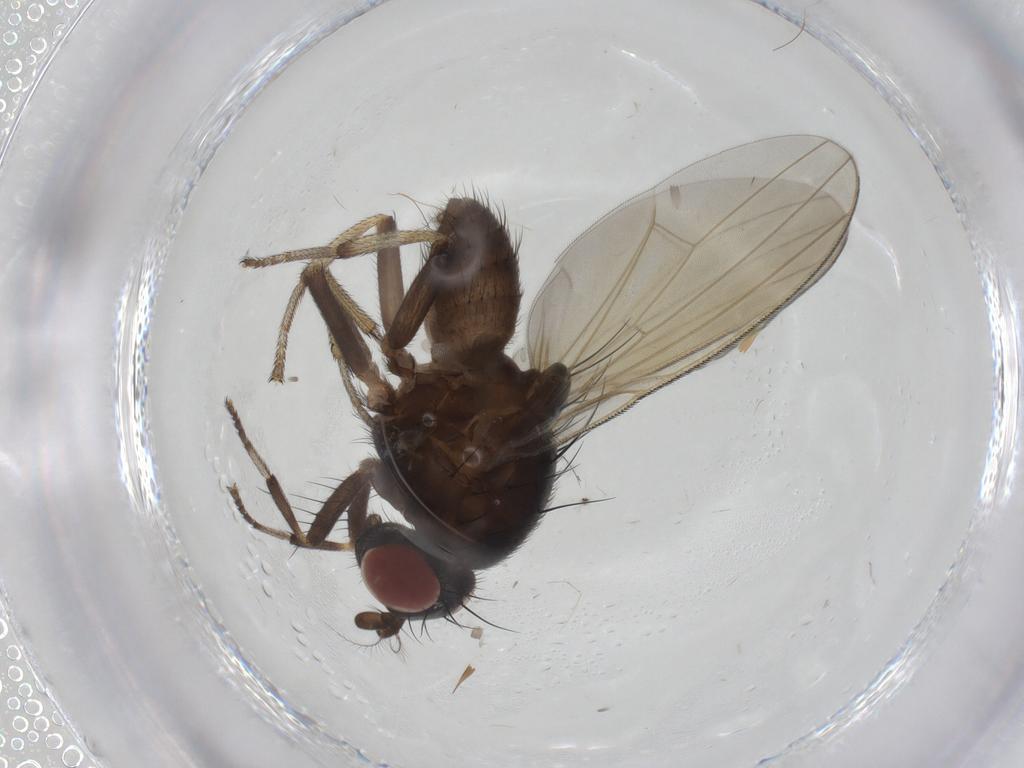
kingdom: Animalia
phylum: Arthropoda
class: Insecta
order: Diptera
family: Lauxaniidae
